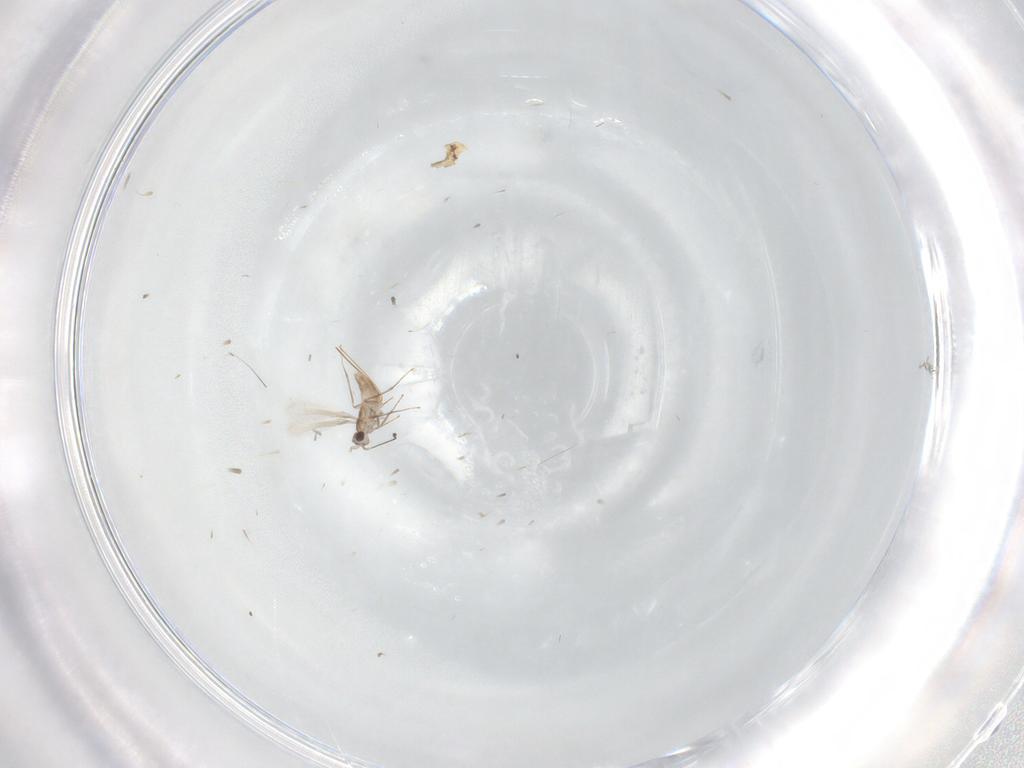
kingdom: Animalia
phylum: Arthropoda
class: Insecta
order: Hymenoptera
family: Mymaridae
